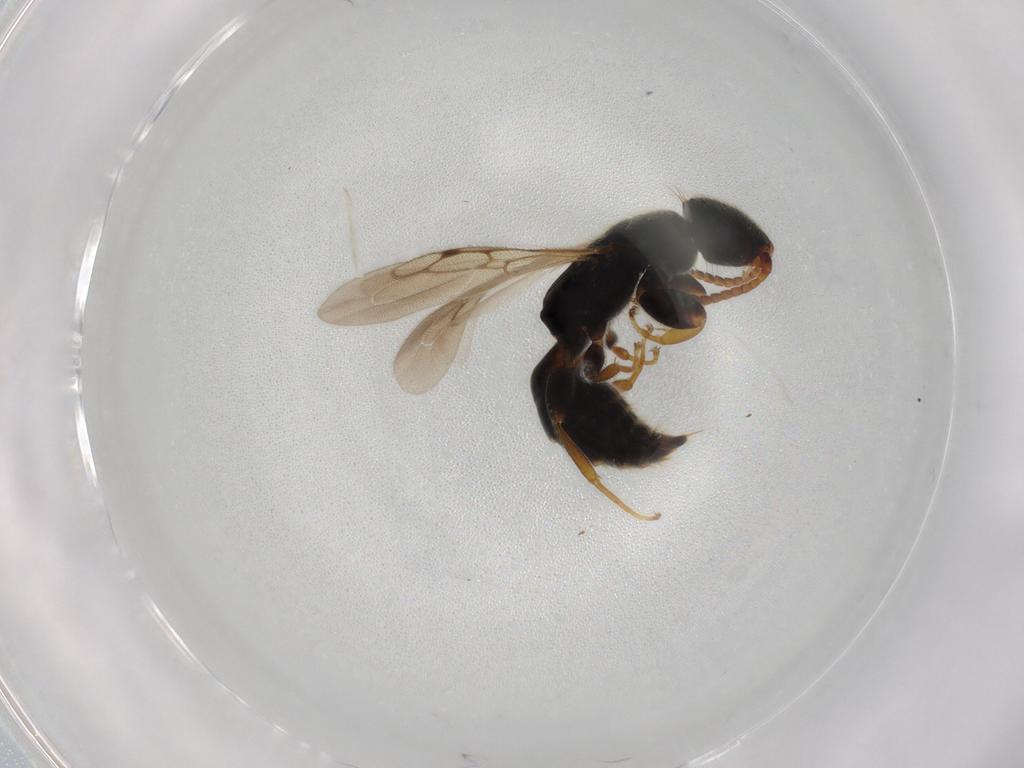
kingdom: Animalia
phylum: Arthropoda
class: Insecta
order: Hymenoptera
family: Bethylidae
